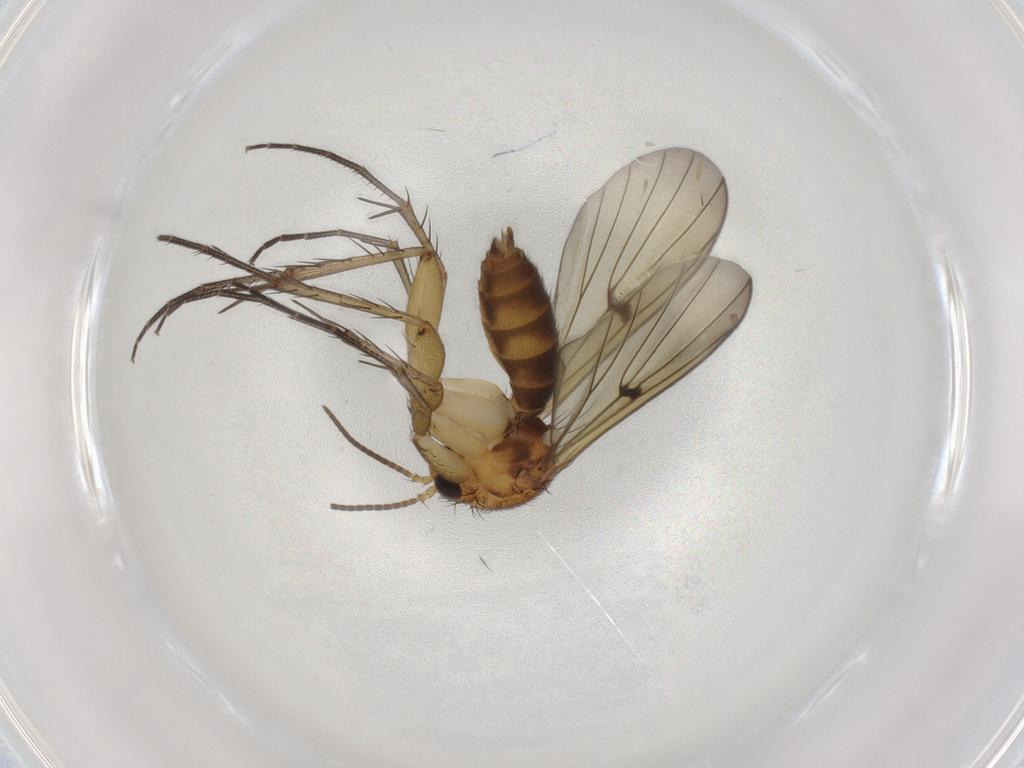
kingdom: Animalia
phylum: Arthropoda
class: Insecta
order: Diptera
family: Mycetophilidae
